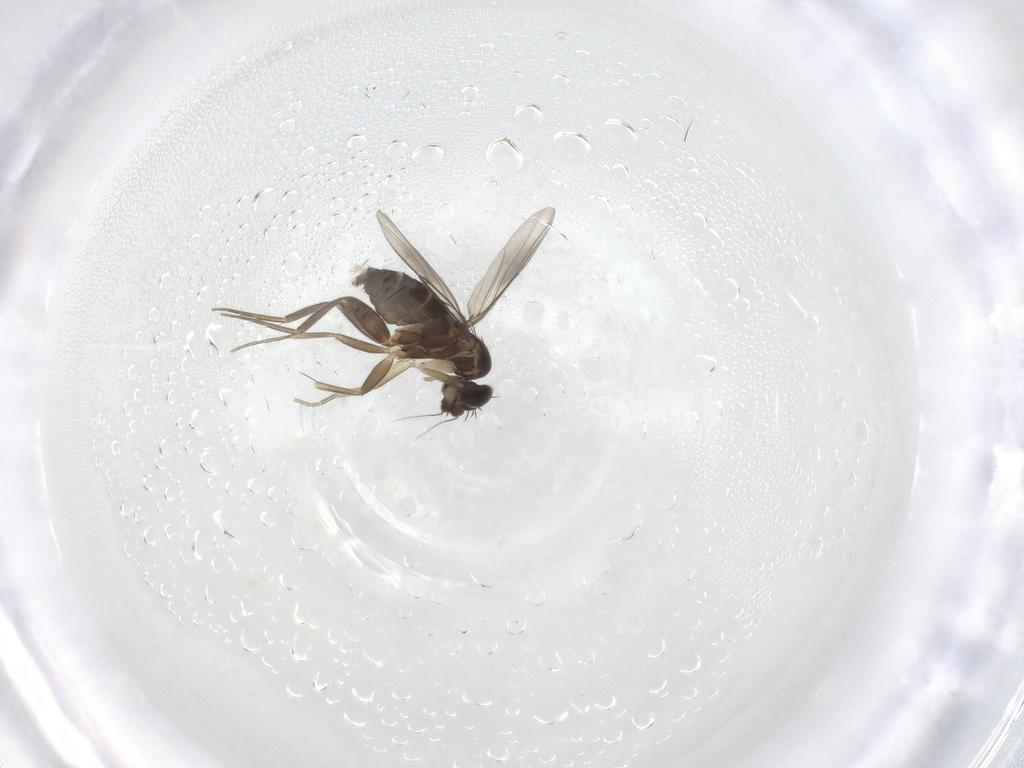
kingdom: Animalia
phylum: Arthropoda
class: Insecta
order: Diptera
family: Phoridae
